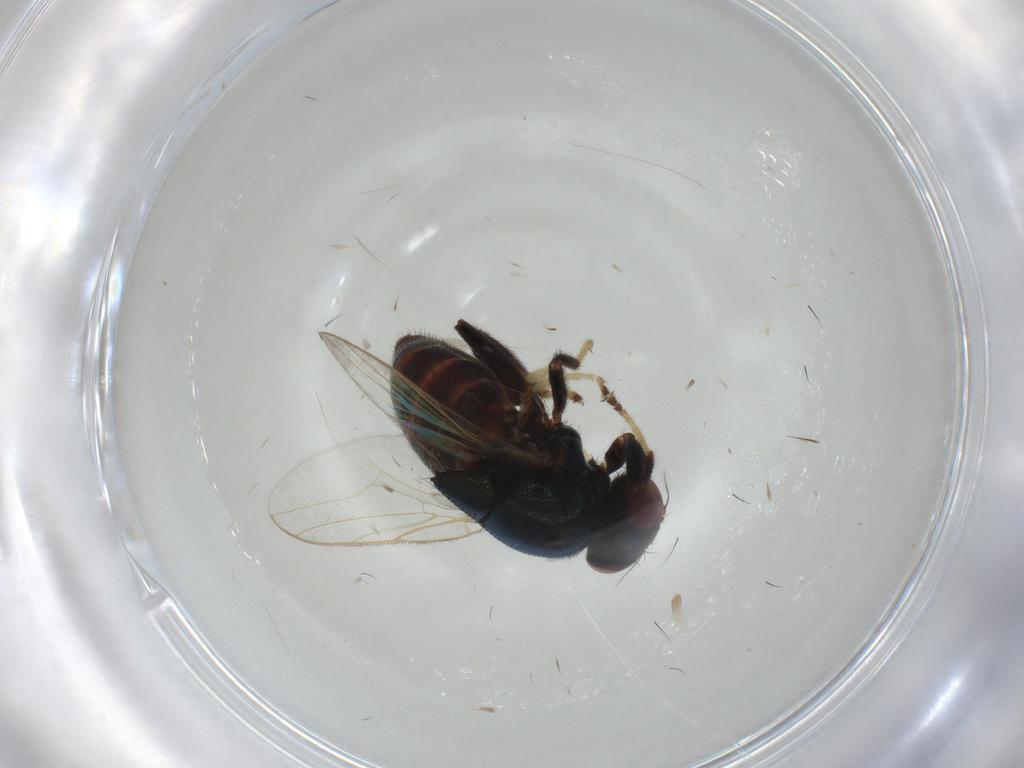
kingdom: Animalia
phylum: Arthropoda
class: Insecta
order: Diptera
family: Chloropidae
